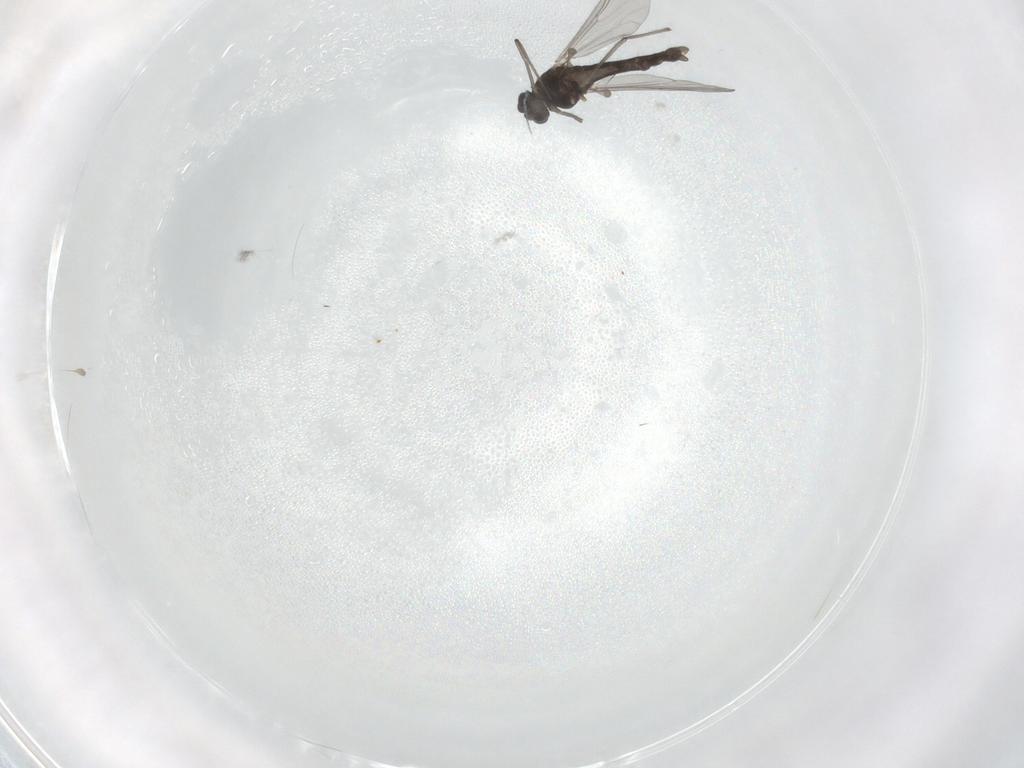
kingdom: Animalia
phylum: Arthropoda
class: Insecta
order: Diptera
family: Chironomidae
